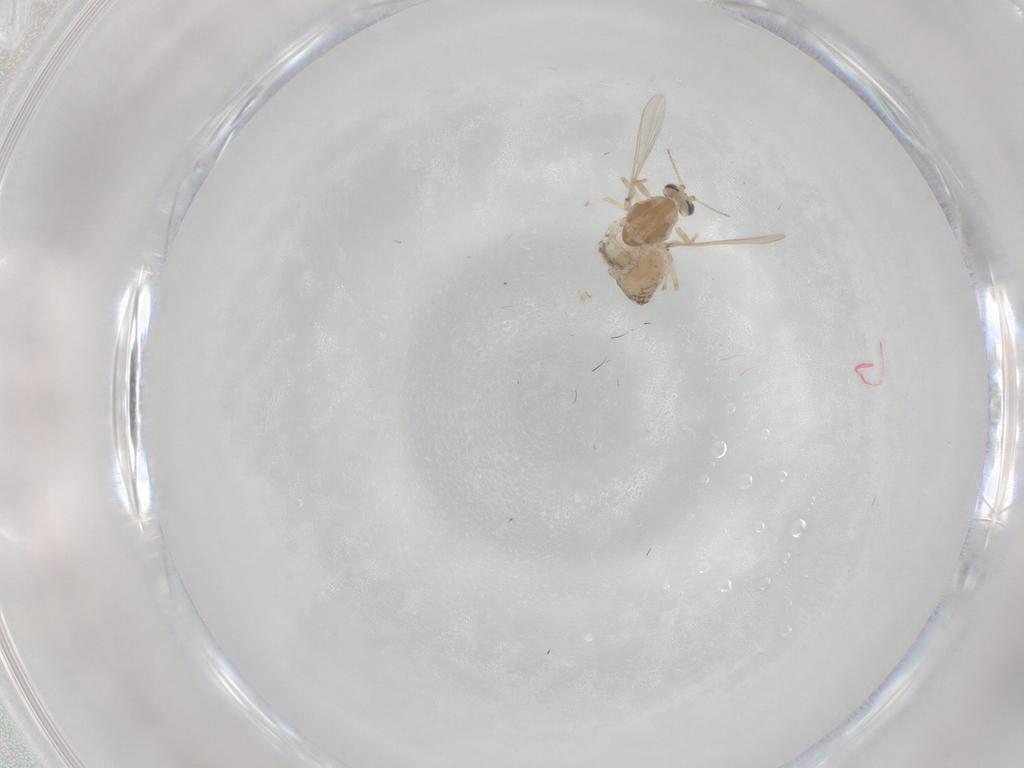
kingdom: Animalia
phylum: Arthropoda
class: Insecta
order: Diptera
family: Chironomidae
